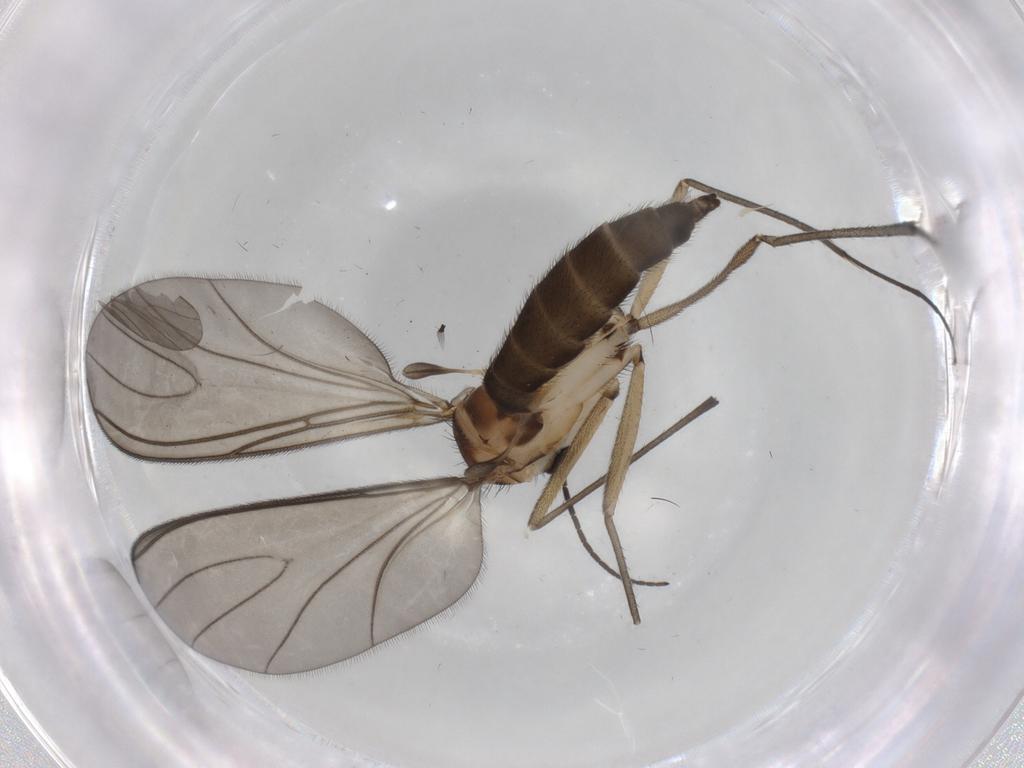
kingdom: Animalia
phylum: Arthropoda
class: Insecta
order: Diptera
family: Sciaridae
